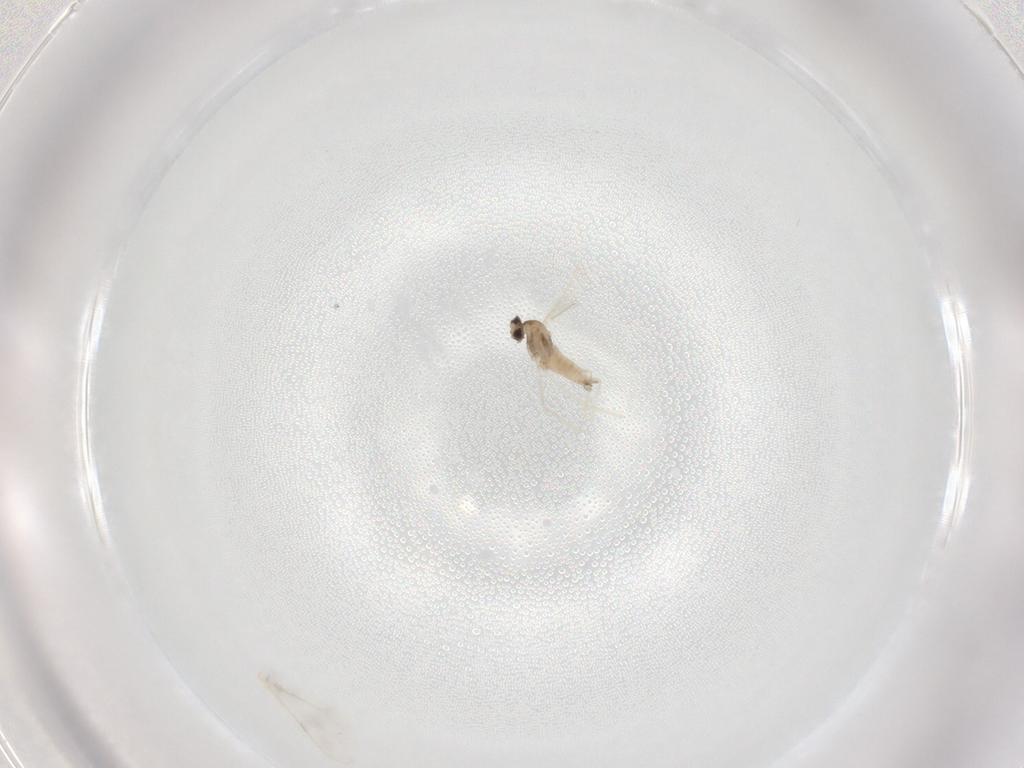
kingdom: Animalia
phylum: Arthropoda
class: Insecta
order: Diptera
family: Cecidomyiidae
